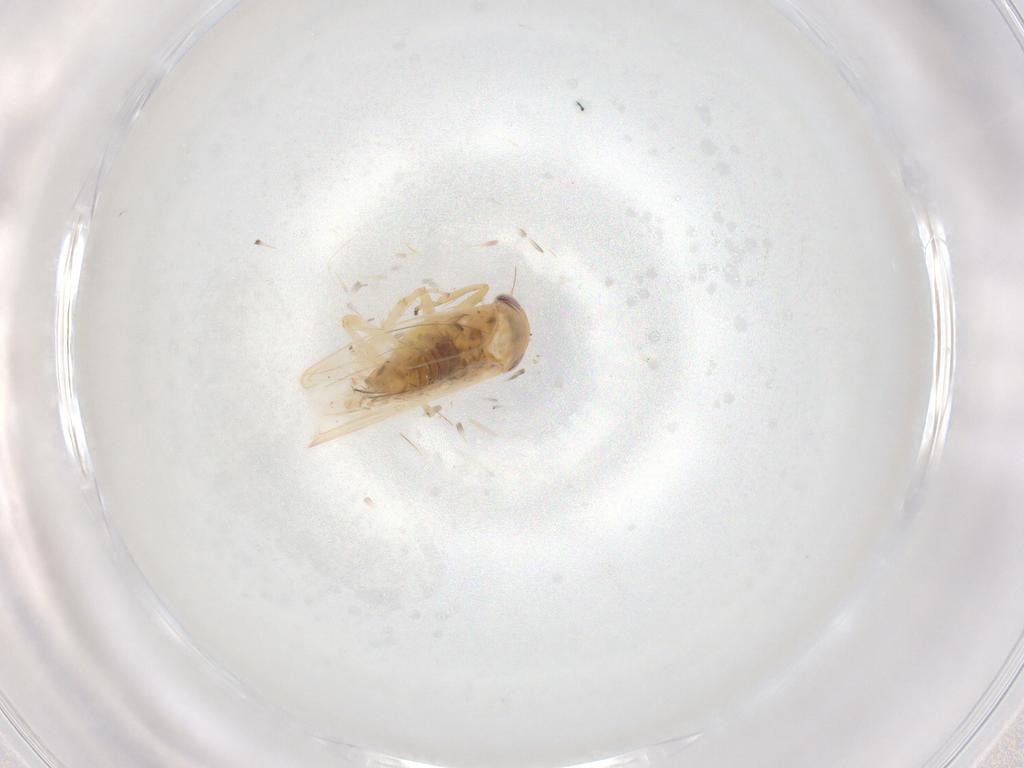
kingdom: Animalia
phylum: Arthropoda
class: Insecta
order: Hemiptera
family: Cicadellidae
